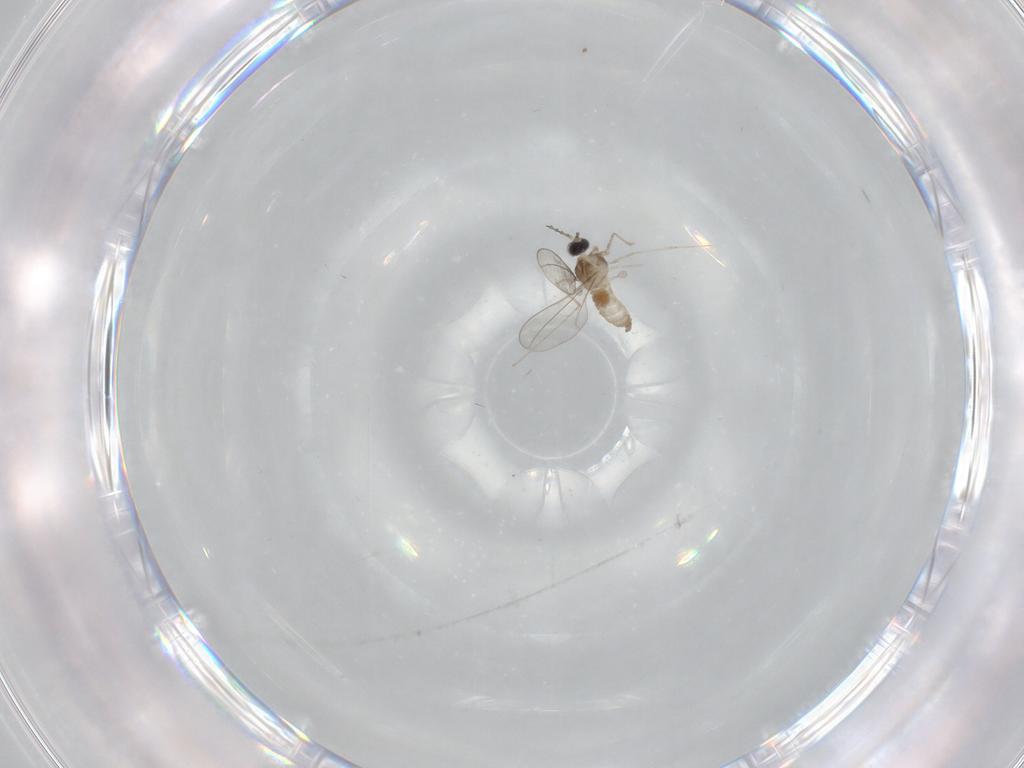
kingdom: Animalia
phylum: Arthropoda
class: Insecta
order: Diptera
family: Cecidomyiidae
